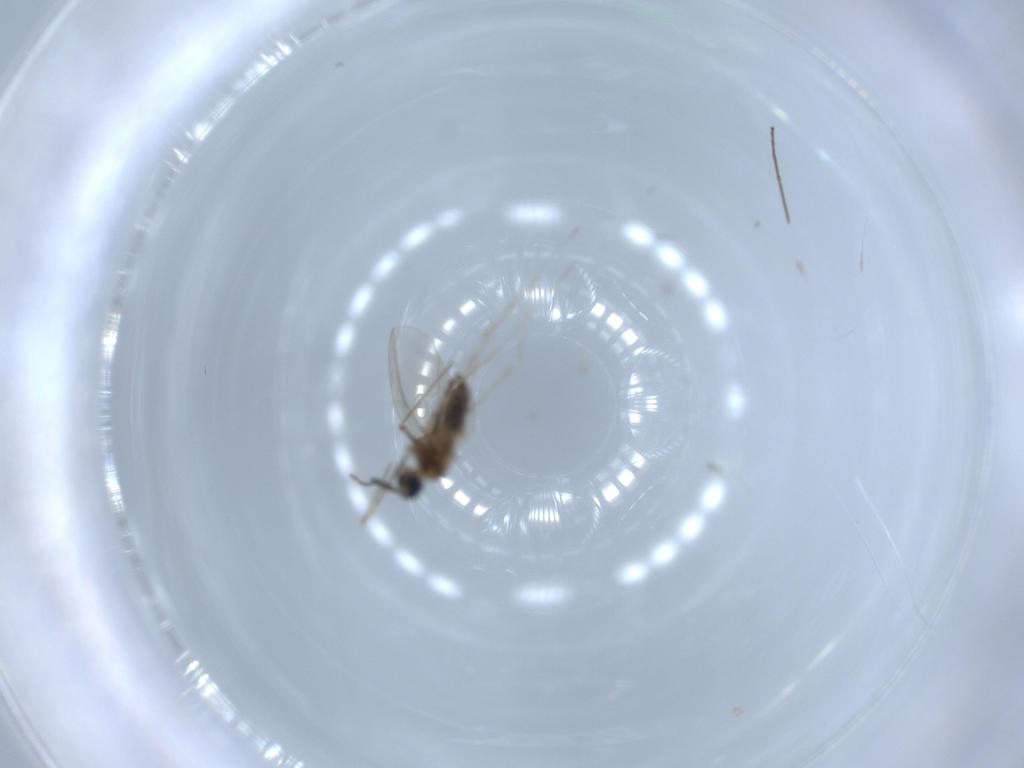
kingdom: Animalia
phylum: Arthropoda
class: Insecta
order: Diptera
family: Cecidomyiidae
